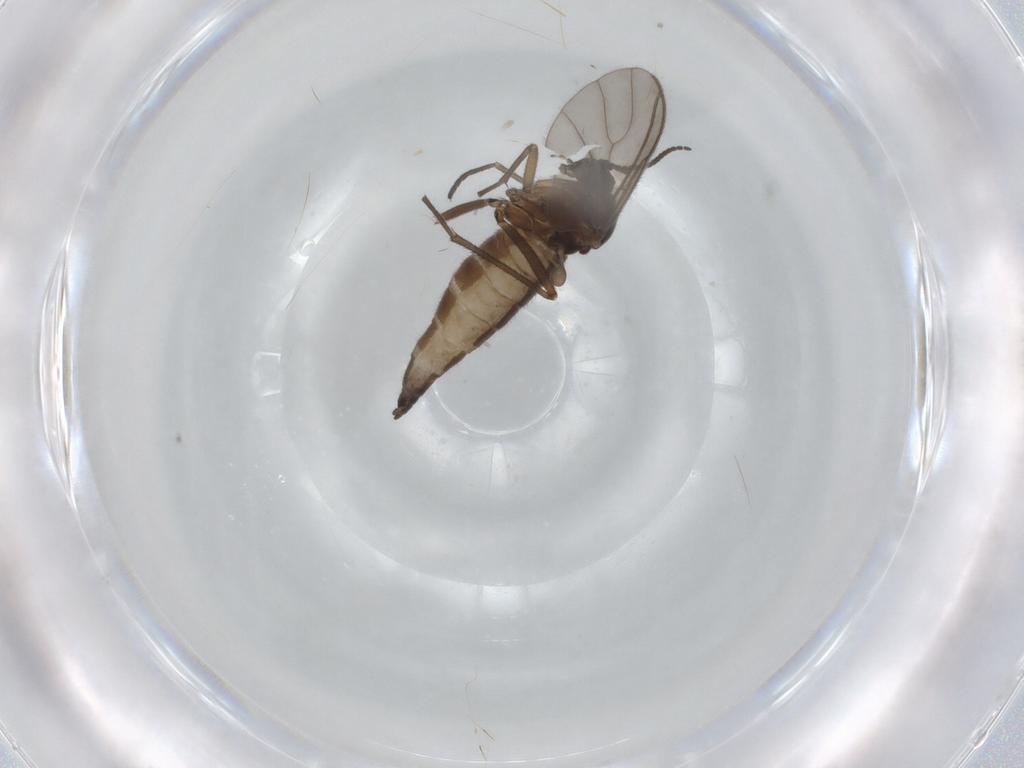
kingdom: Animalia
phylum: Arthropoda
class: Insecta
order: Diptera
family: Sciaridae
